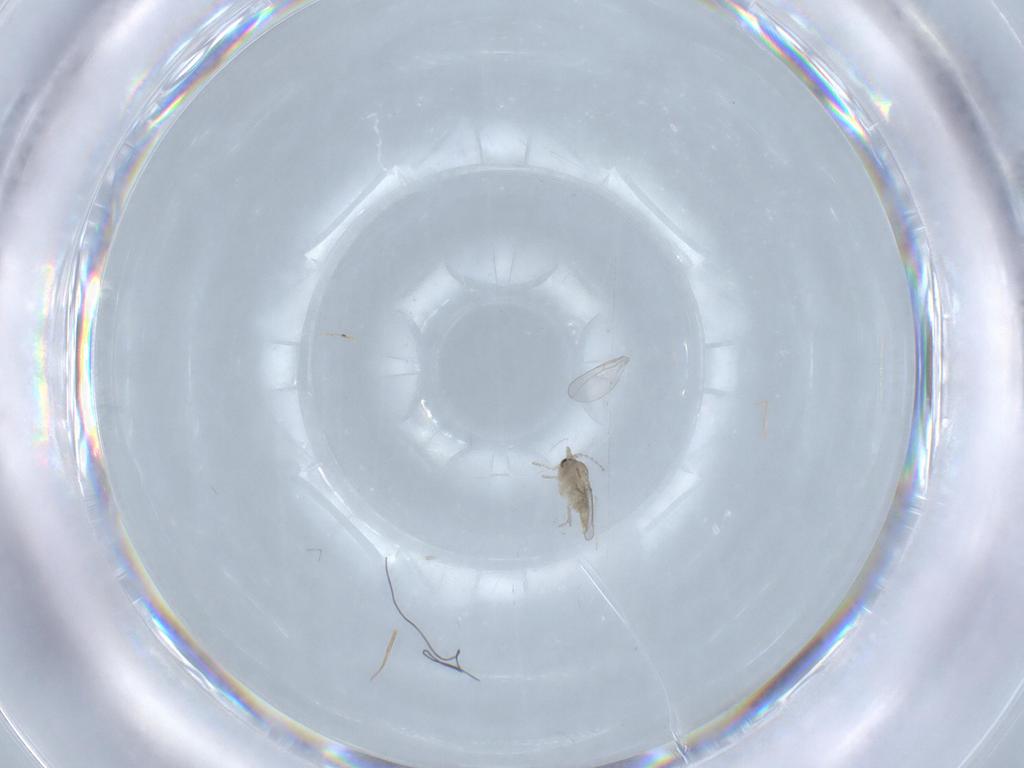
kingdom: Animalia
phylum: Arthropoda
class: Insecta
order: Diptera
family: Cecidomyiidae
